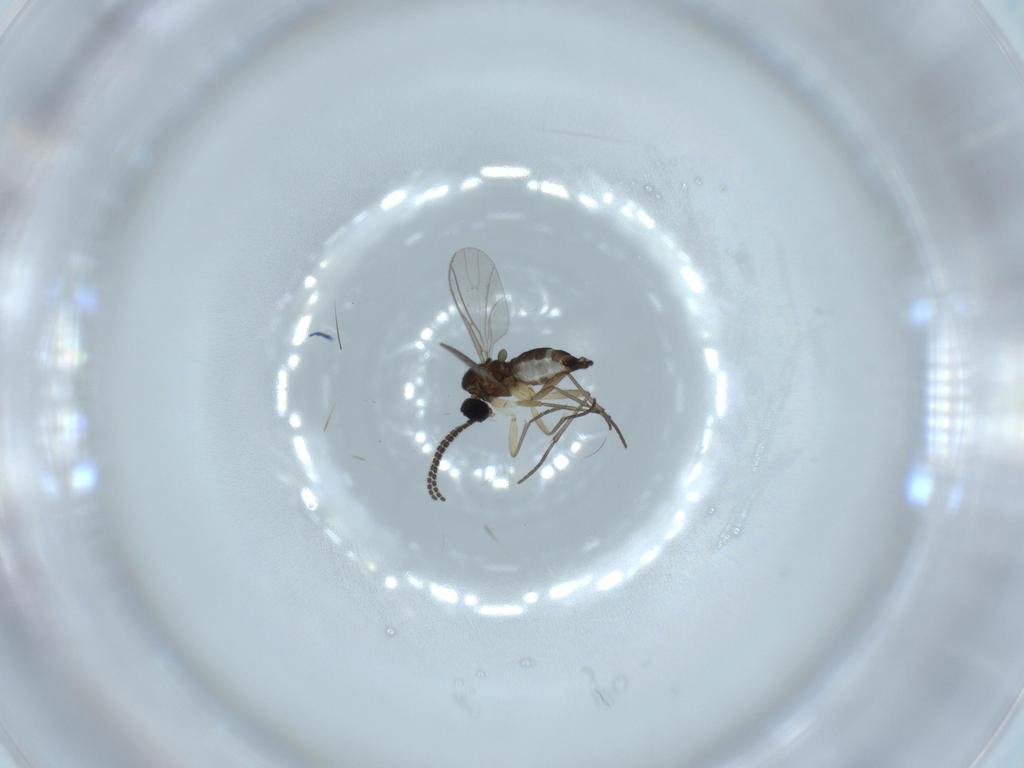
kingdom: Animalia
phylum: Arthropoda
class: Insecta
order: Diptera
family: Sciaridae
